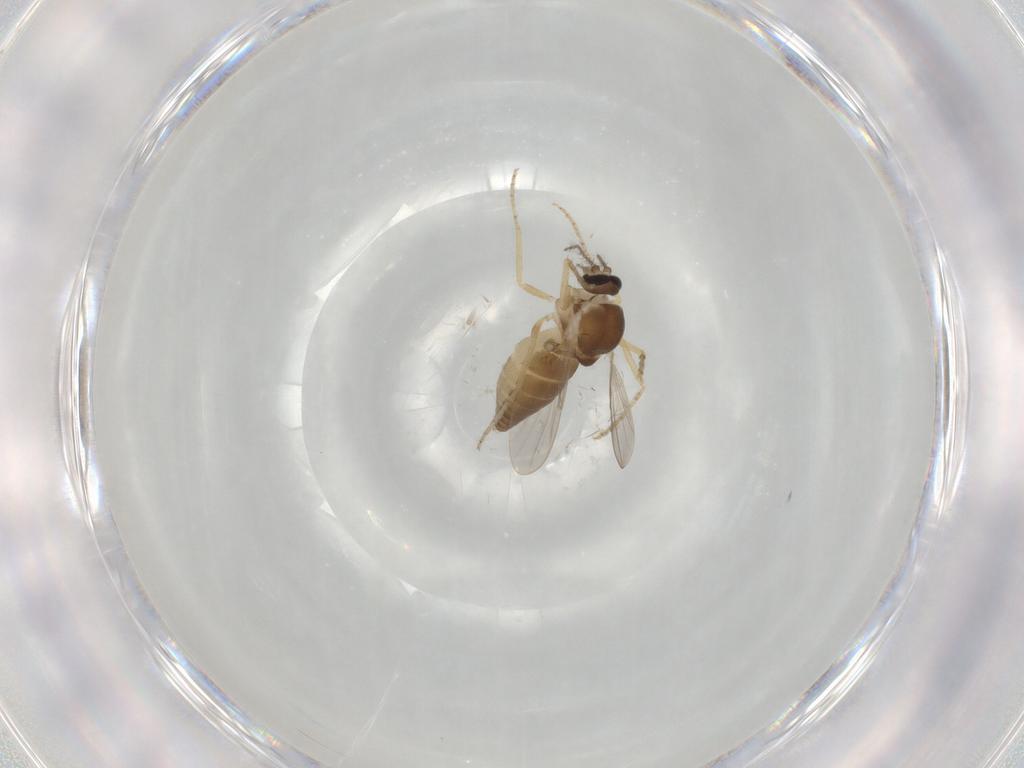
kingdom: Animalia
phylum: Arthropoda
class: Insecta
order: Diptera
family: Ceratopogonidae
